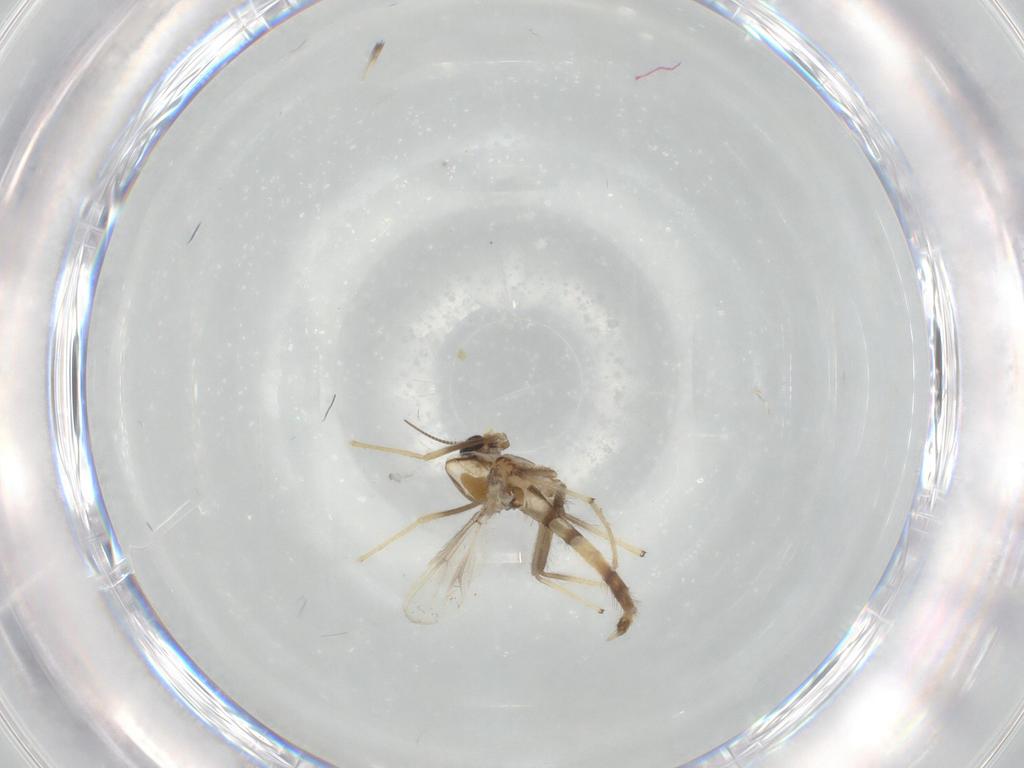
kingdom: Animalia
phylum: Arthropoda
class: Insecta
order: Diptera
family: Chironomidae
